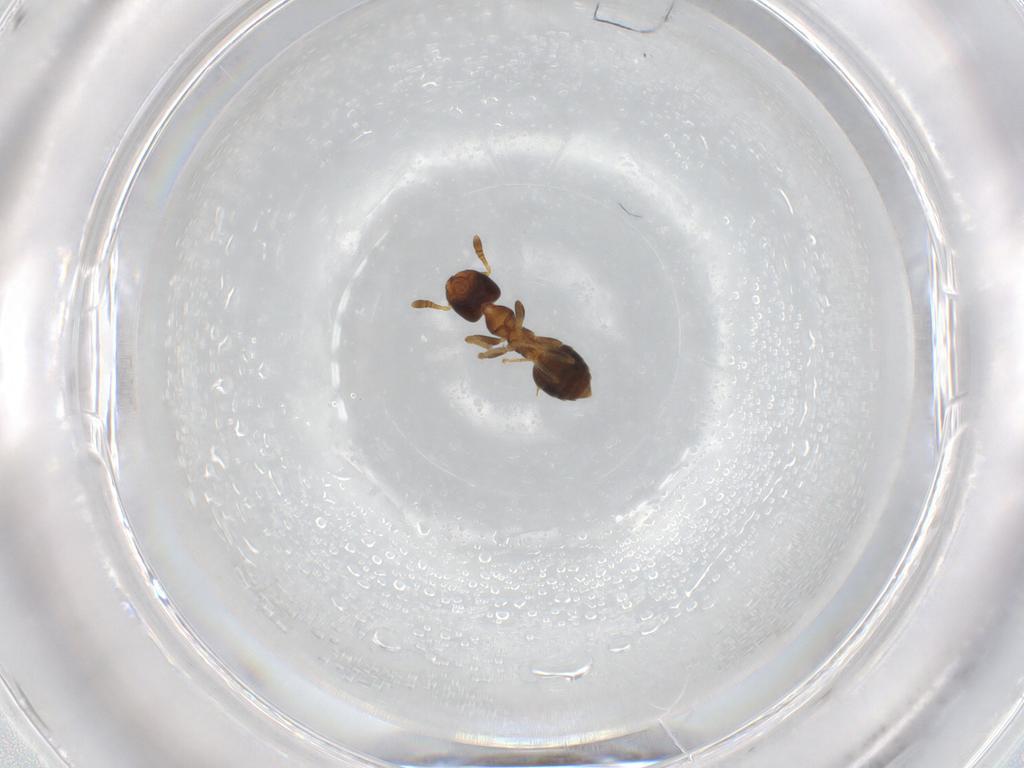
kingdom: Animalia
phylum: Arthropoda
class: Insecta
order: Hymenoptera
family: Formicidae
